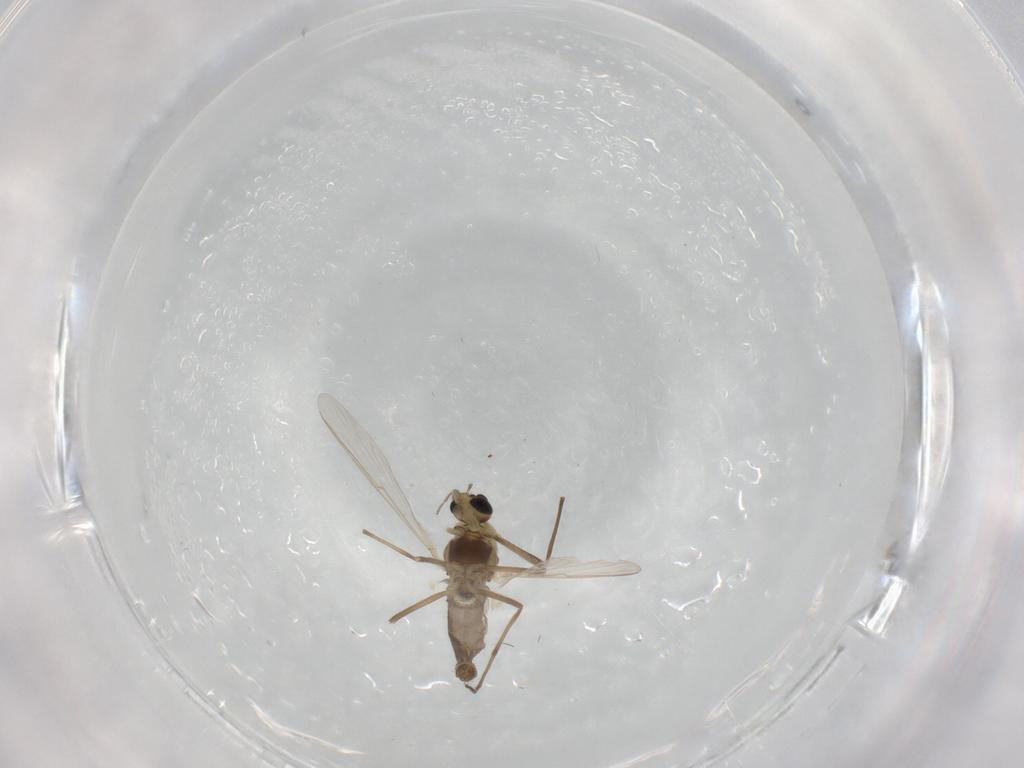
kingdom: Animalia
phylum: Arthropoda
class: Insecta
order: Diptera
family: Chironomidae
